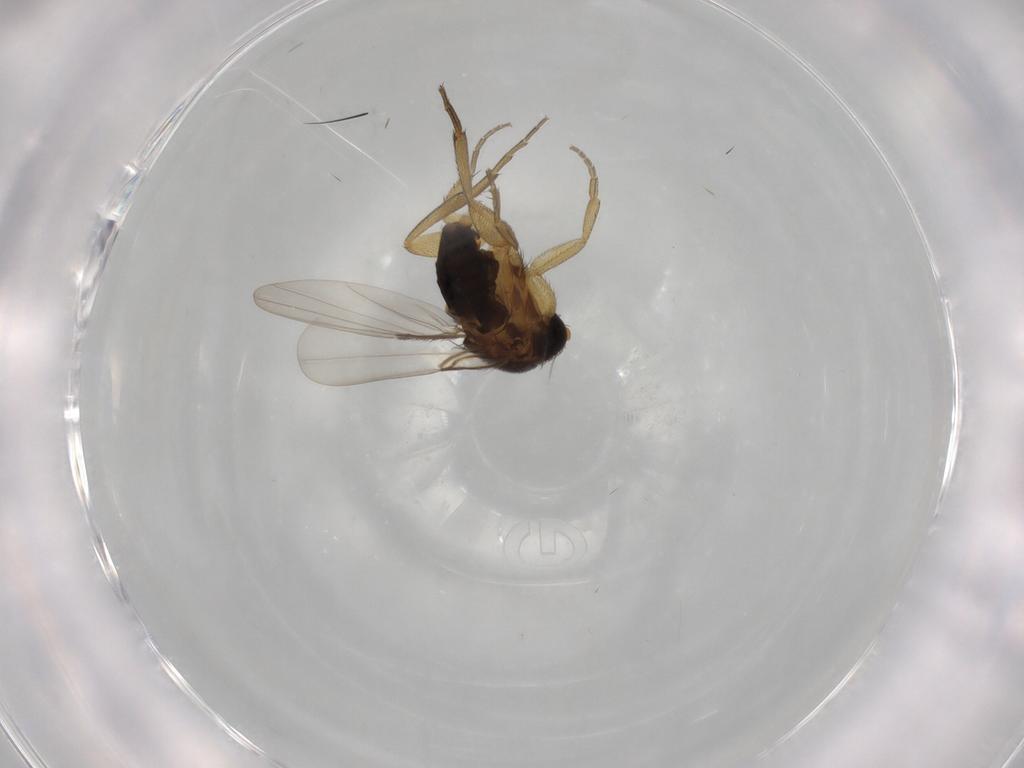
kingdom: Animalia
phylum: Arthropoda
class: Insecta
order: Diptera
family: Phoridae
